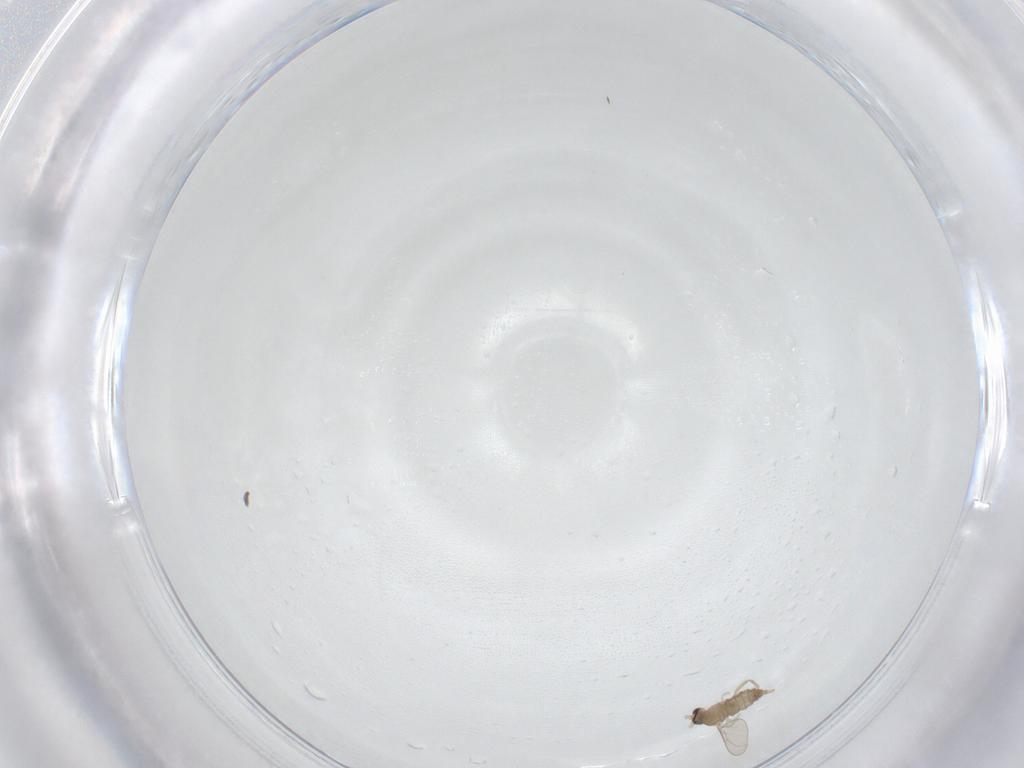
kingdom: Animalia
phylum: Arthropoda
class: Insecta
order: Diptera
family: Cecidomyiidae
